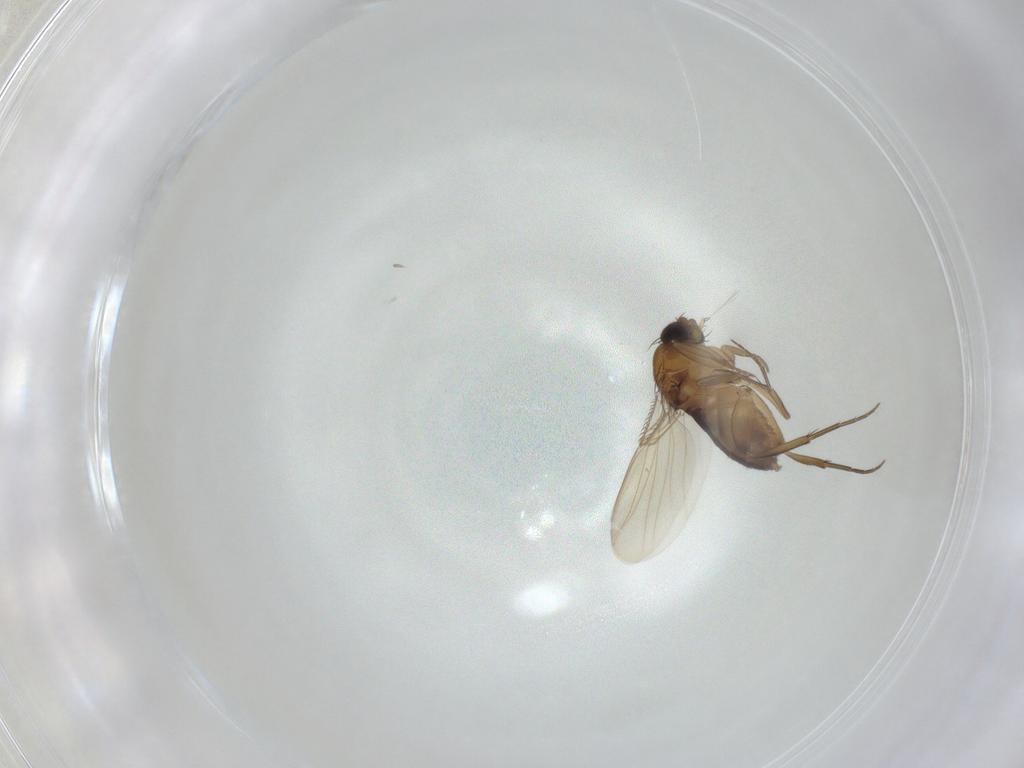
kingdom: Animalia
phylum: Arthropoda
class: Insecta
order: Diptera
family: Phoridae
